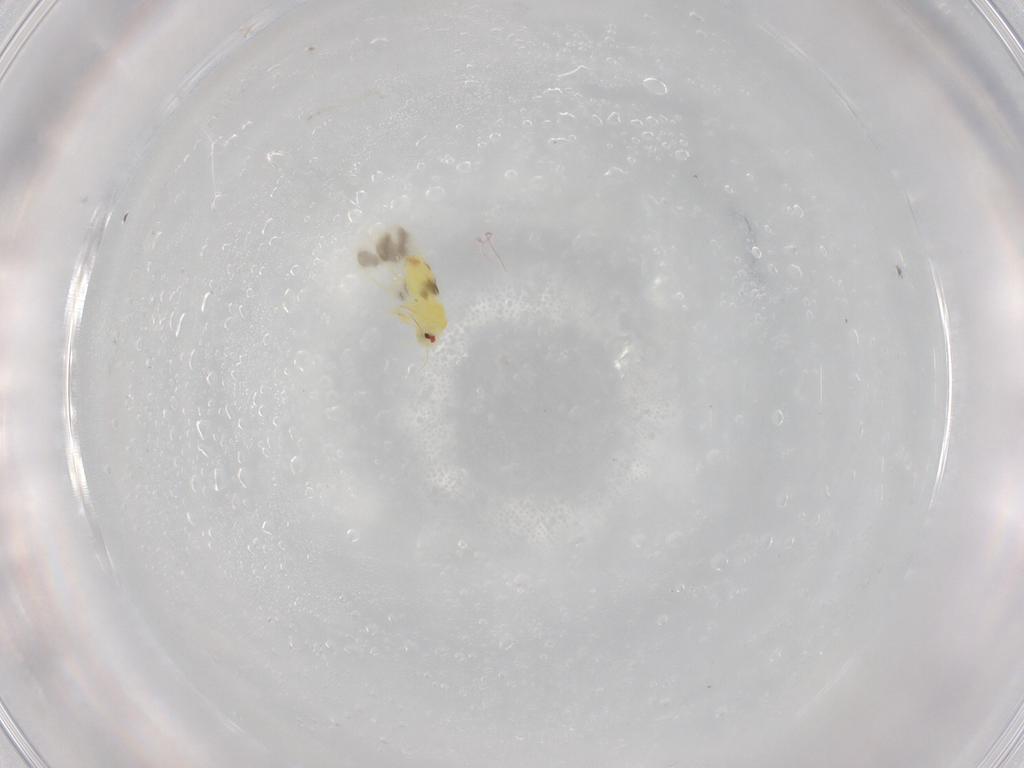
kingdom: Animalia
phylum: Arthropoda
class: Insecta
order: Hemiptera
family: Aleyrodidae
